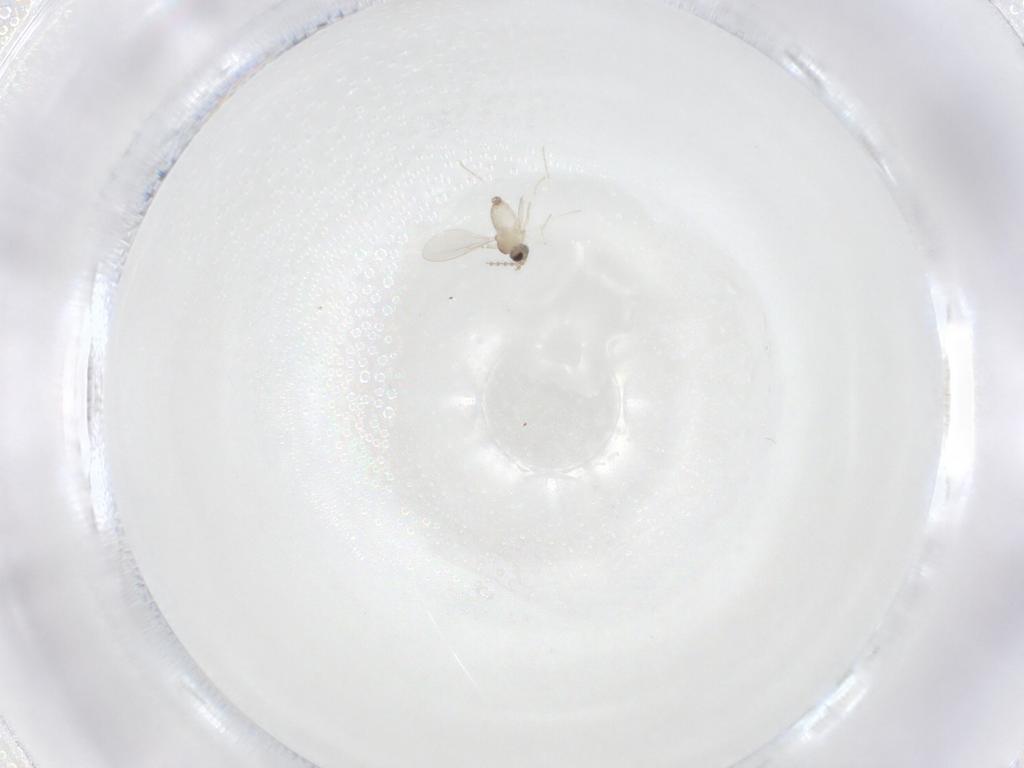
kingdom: Animalia
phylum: Arthropoda
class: Insecta
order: Diptera
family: Cecidomyiidae
